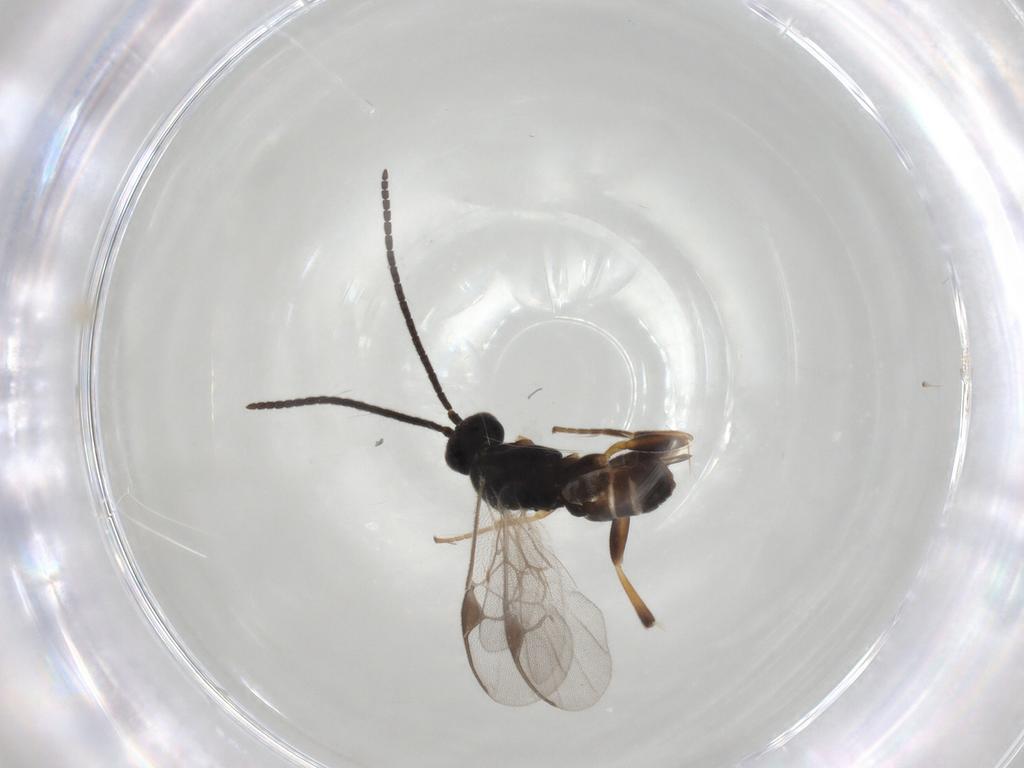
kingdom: Animalia
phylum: Arthropoda
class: Insecta
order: Hymenoptera
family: Braconidae
